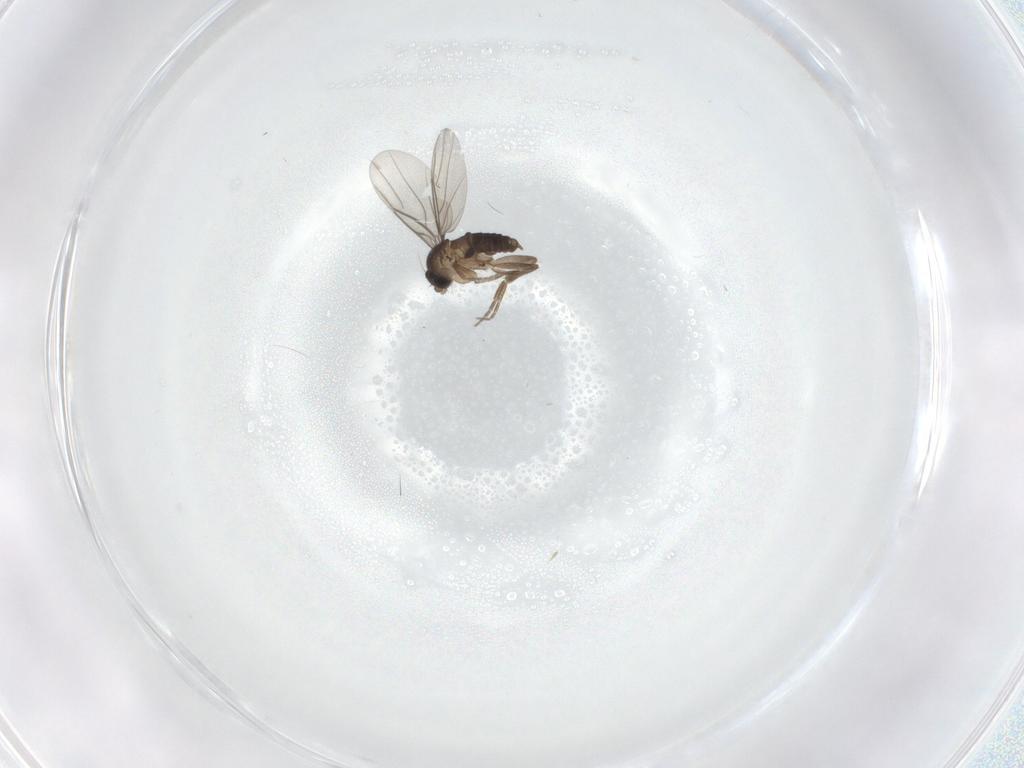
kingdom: Animalia
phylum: Arthropoda
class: Insecta
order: Diptera
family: Phoridae
